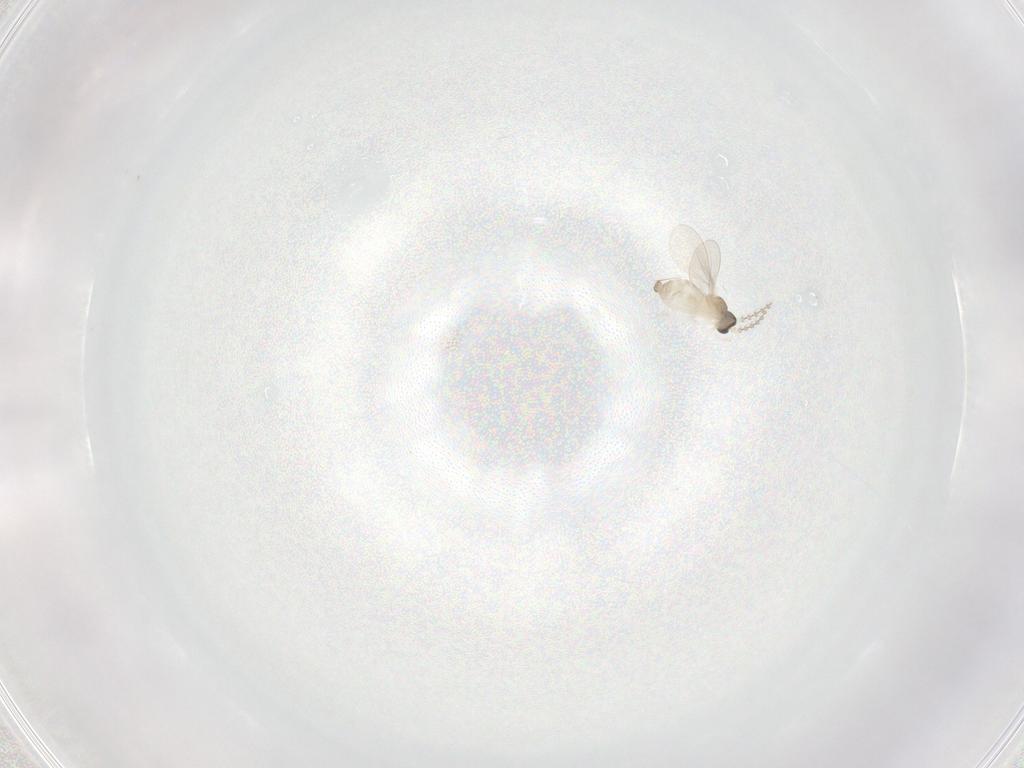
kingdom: Animalia
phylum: Arthropoda
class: Insecta
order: Diptera
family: Cecidomyiidae
